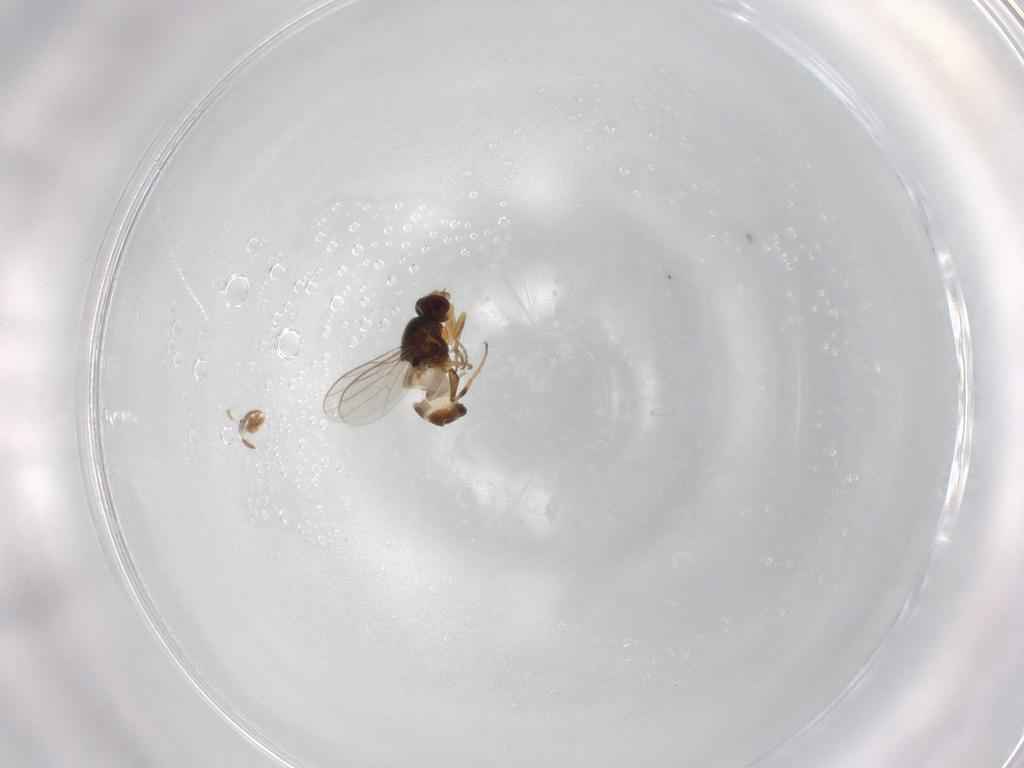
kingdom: Animalia
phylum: Arthropoda
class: Insecta
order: Diptera
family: Chloropidae
